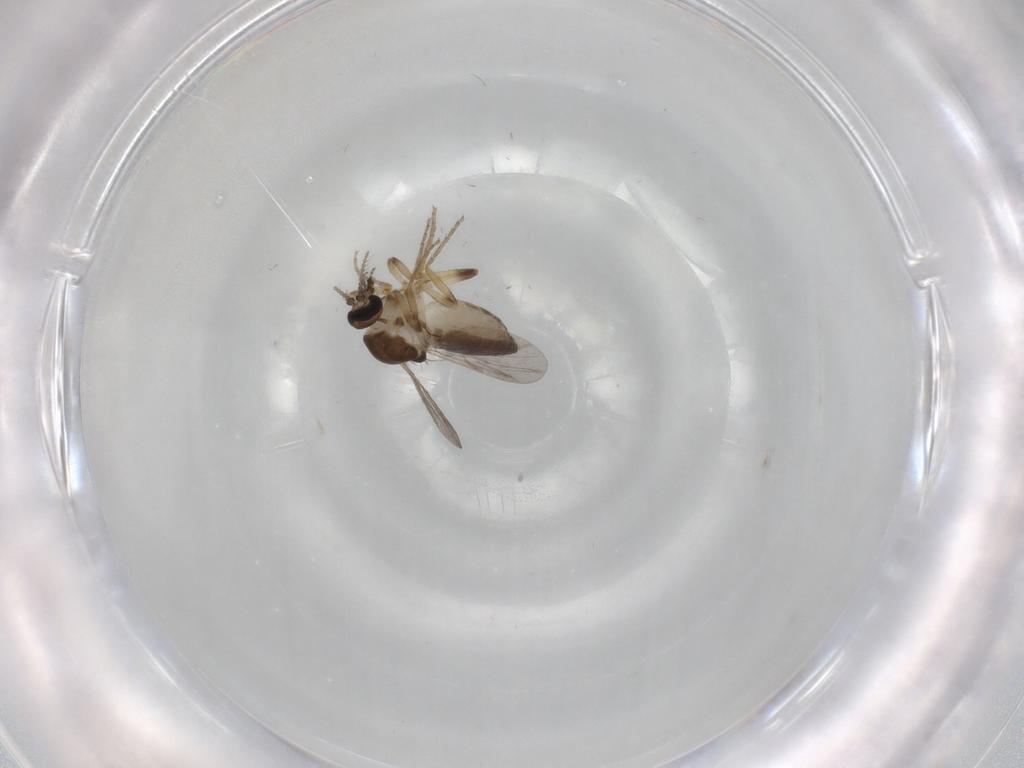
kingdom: Animalia
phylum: Arthropoda
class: Insecta
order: Diptera
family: Ceratopogonidae
